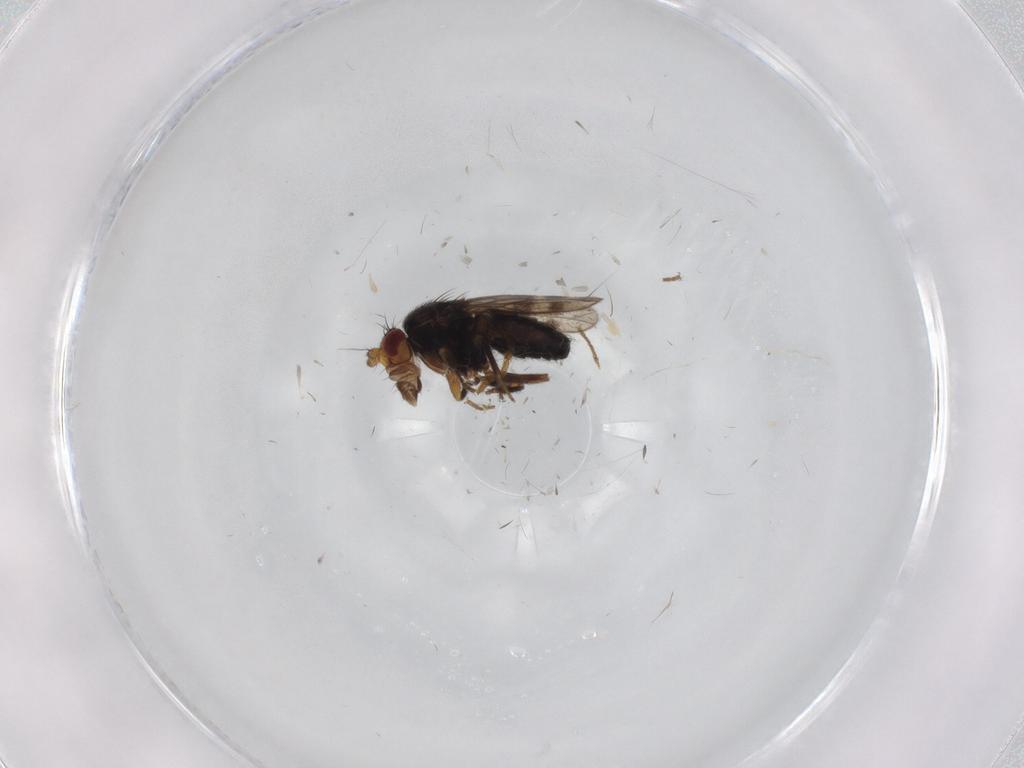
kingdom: Animalia
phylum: Arthropoda
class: Insecta
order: Diptera
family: Sphaeroceridae
